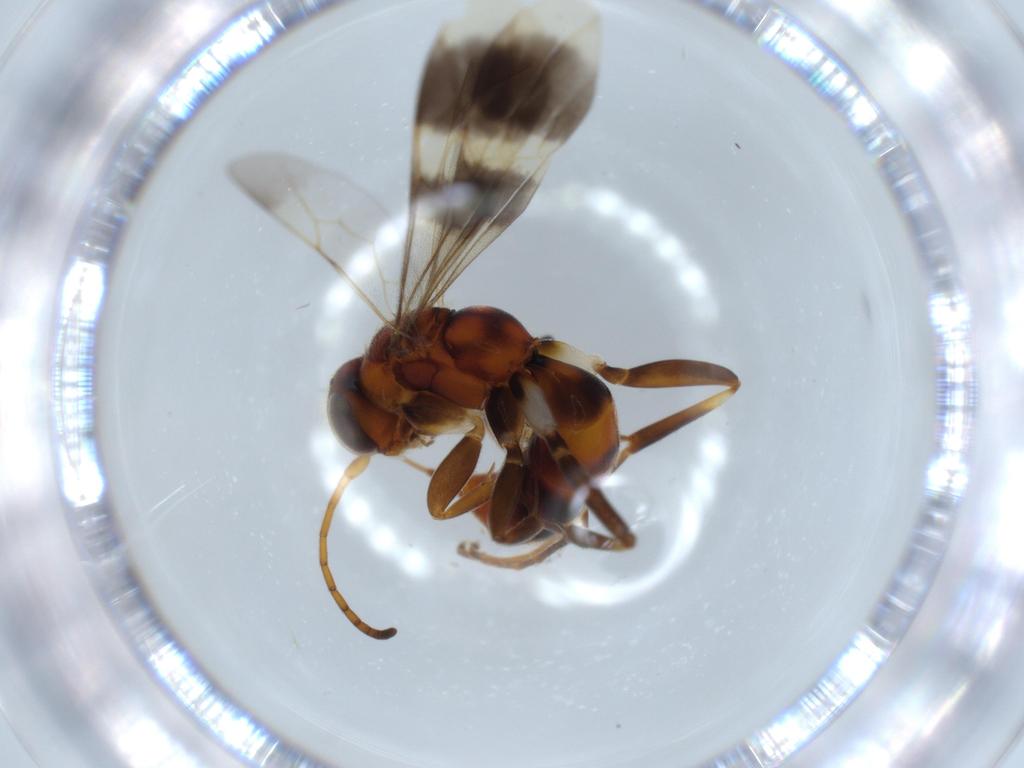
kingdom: Animalia
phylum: Arthropoda
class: Insecta
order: Hymenoptera
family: Pompilidae
